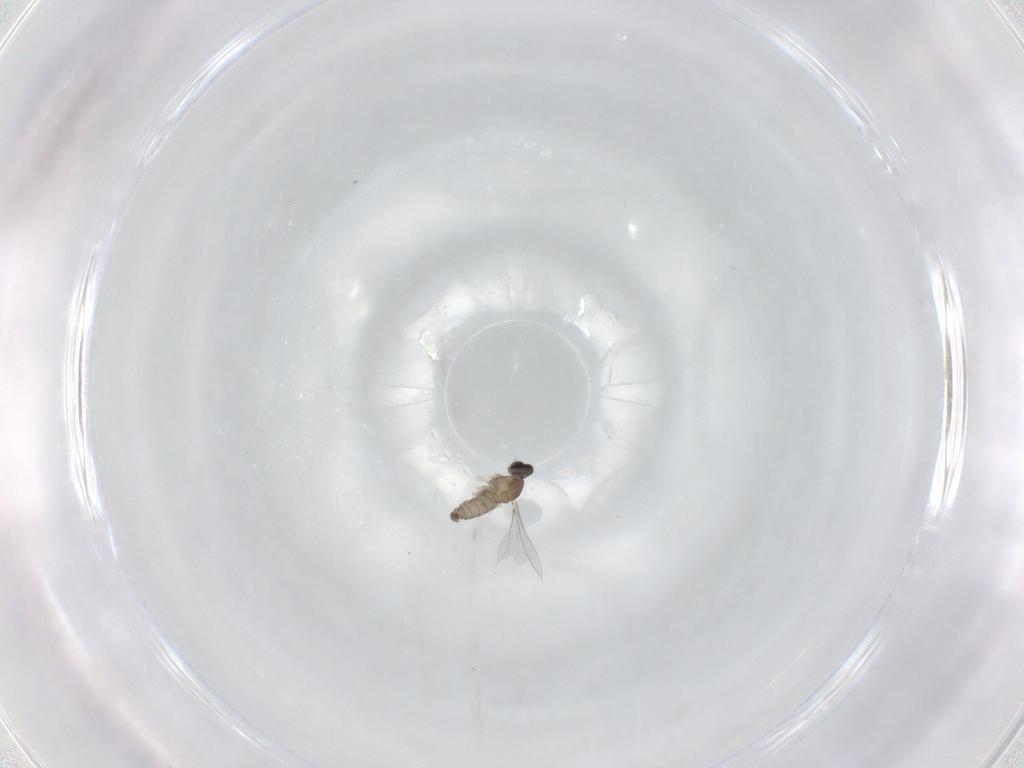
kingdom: Animalia
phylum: Arthropoda
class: Insecta
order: Diptera
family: Cecidomyiidae
